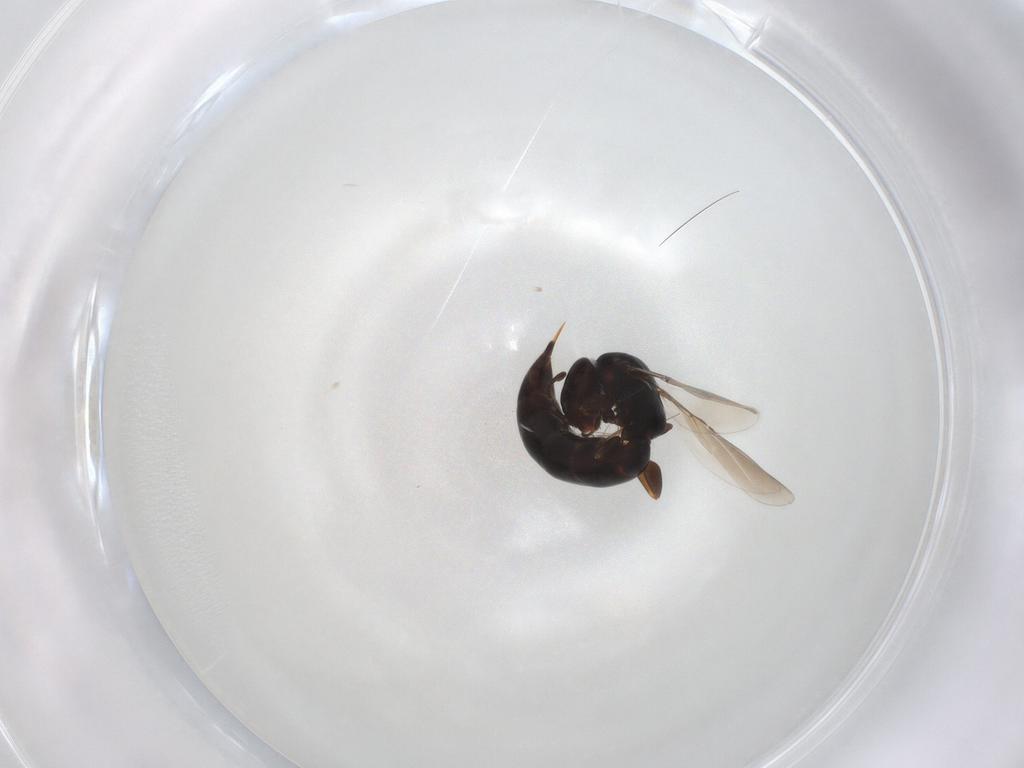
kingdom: Animalia
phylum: Arthropoda
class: Insecta
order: Hymenoptera
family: Bethylidae
